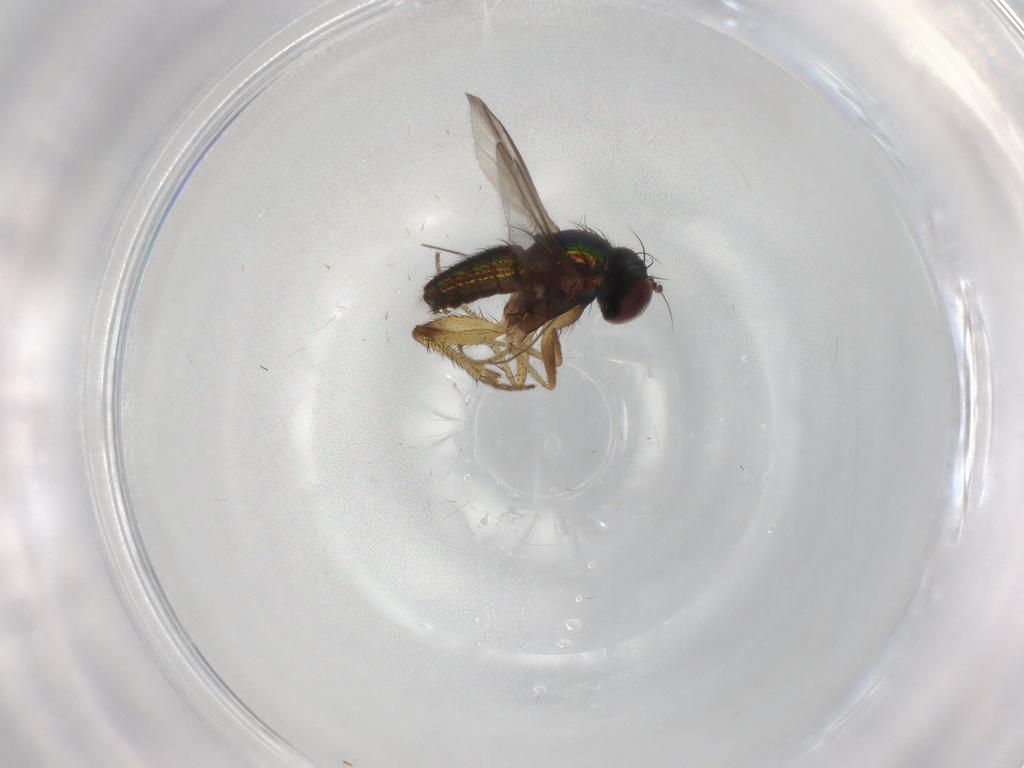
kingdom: Animalia
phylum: Arthropoda
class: Insecta
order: Diptera
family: Chironomidae
